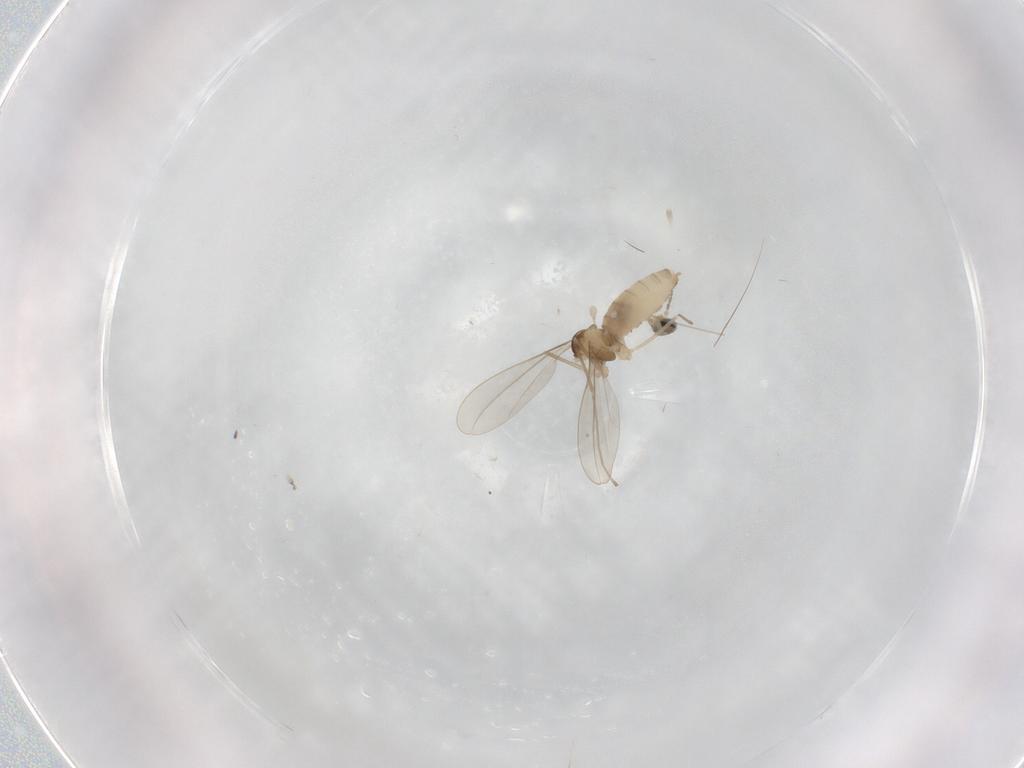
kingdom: Animalia
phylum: Arthropoda
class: Insecta
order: Diptera
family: Cecidomyiidae
